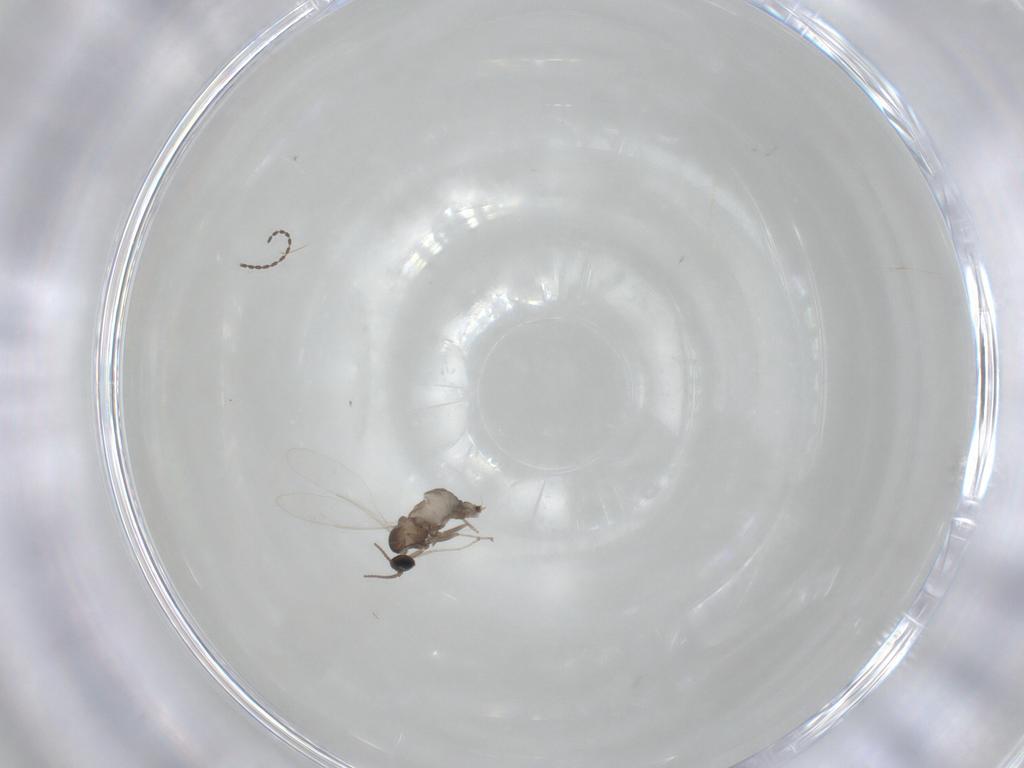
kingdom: Animalia
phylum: Arthropoda
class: Insecta
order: Diptera
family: Cecidomyiidae
